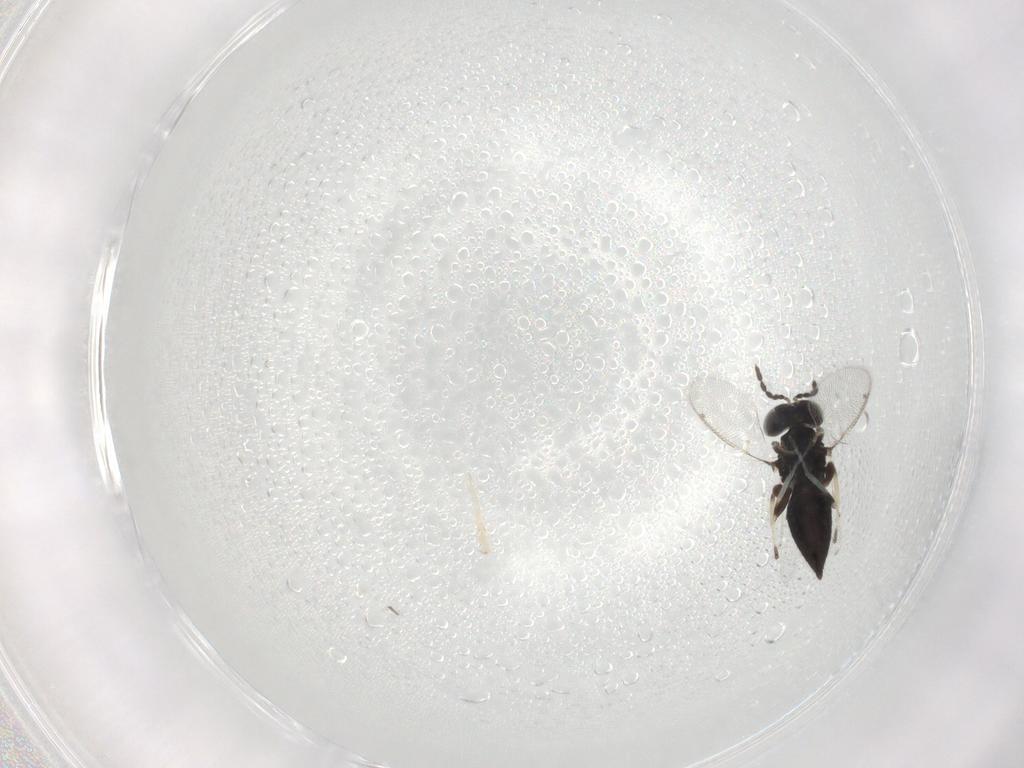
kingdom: Animalia
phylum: Arthropoda
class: Insecta
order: Hymenoptera
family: Eulophidae
